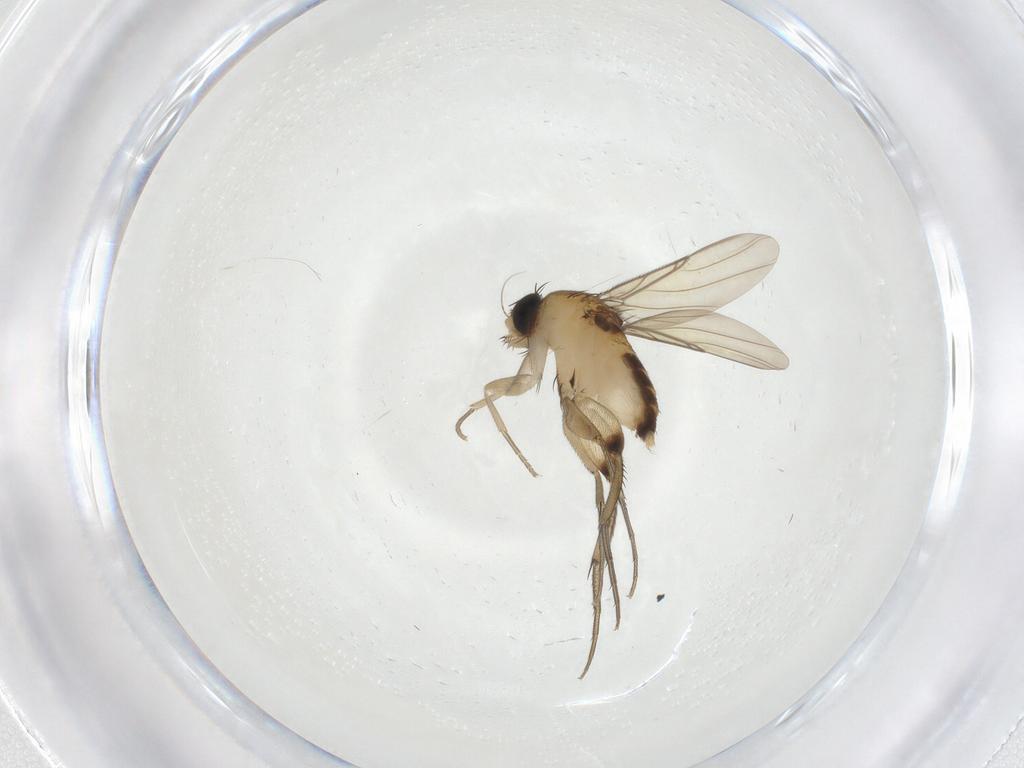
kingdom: Animalia
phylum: Arthropoda
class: Insecta
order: Diptera
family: Phoridae
